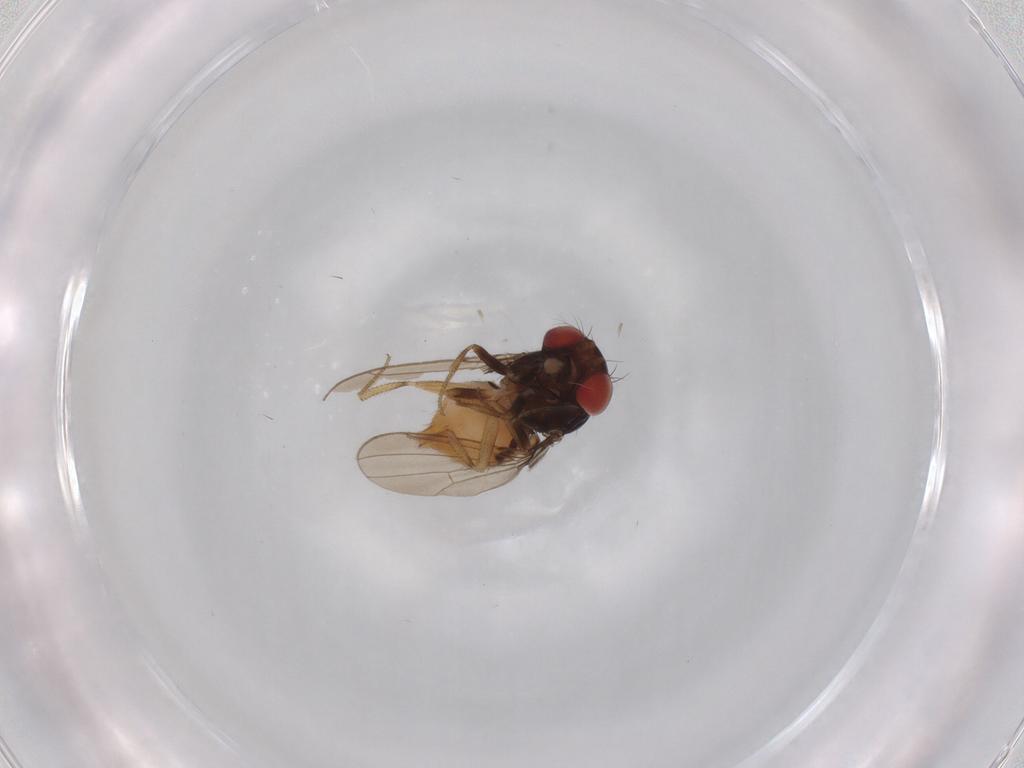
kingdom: Animalia
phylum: Arthropoda
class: Insecta
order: Diptera
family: Drosophilidae
